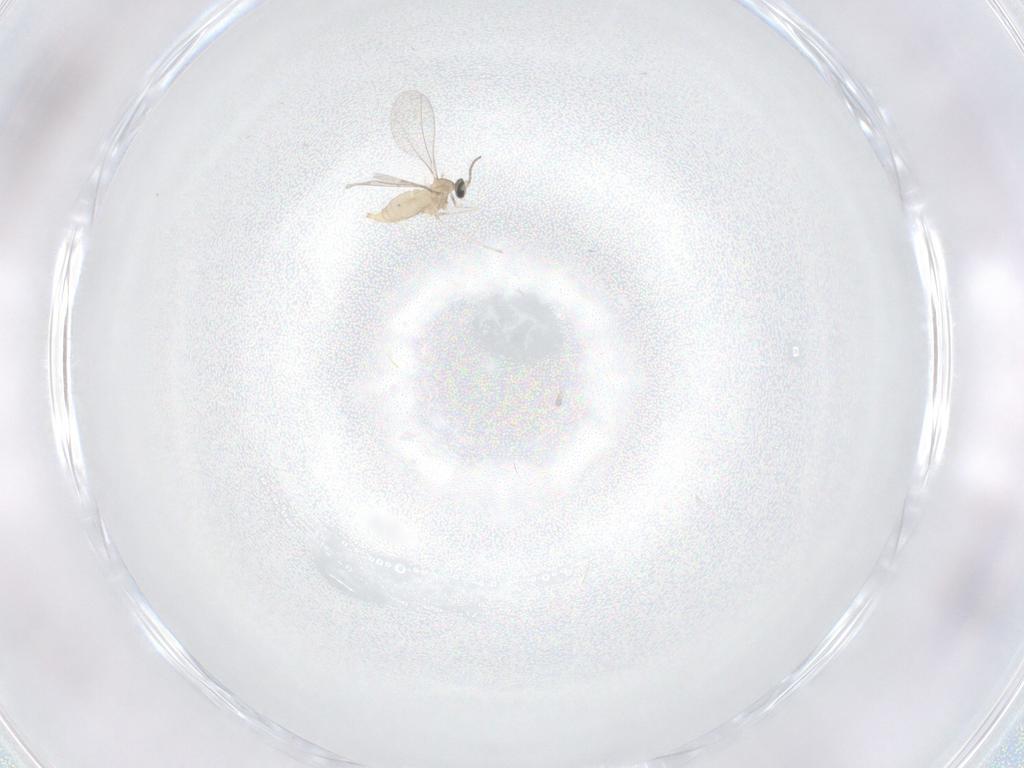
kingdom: Animalia
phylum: Arthropoda
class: Insecta
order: Diptera
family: Cecidomyiidae
